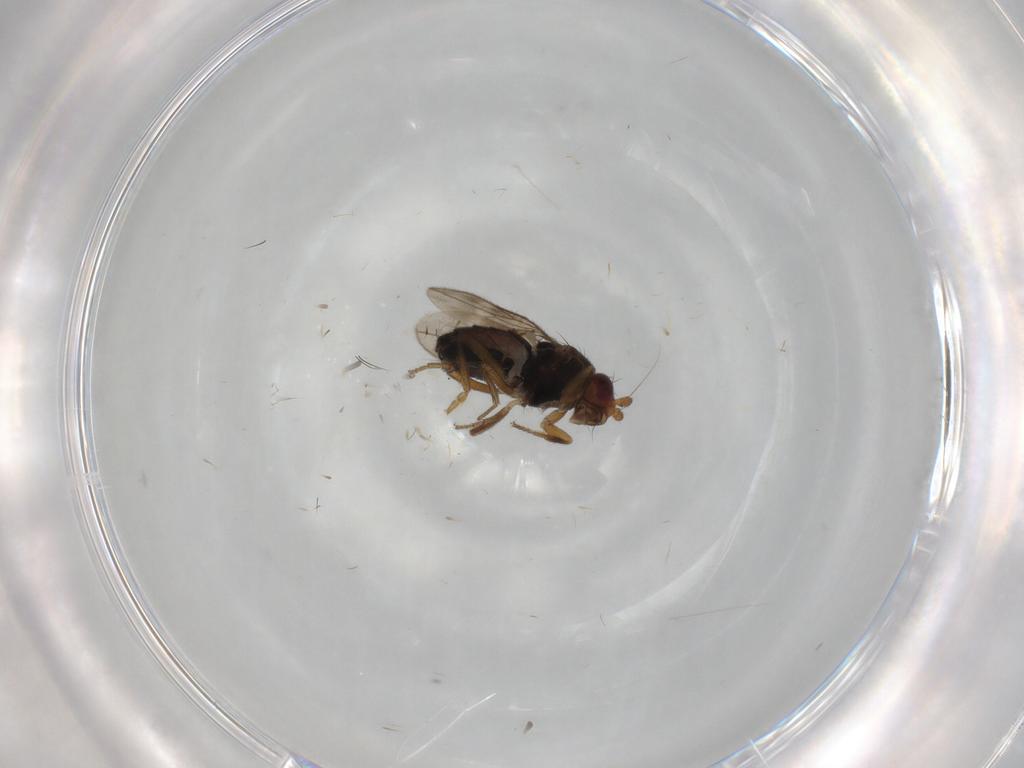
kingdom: Animalia
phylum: Arthropoda
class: Insecta
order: Diptera
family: Sphaeroceridae
